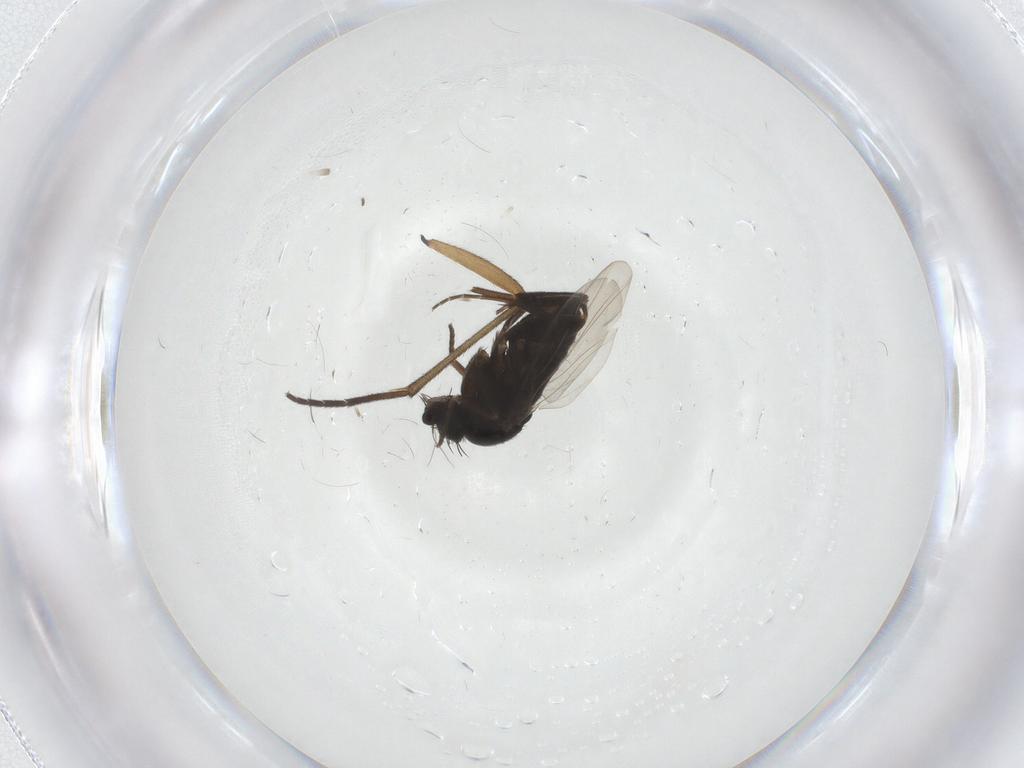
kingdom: Animalia
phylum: Arthropoda
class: Insecta
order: Diptera
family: Phoridae
